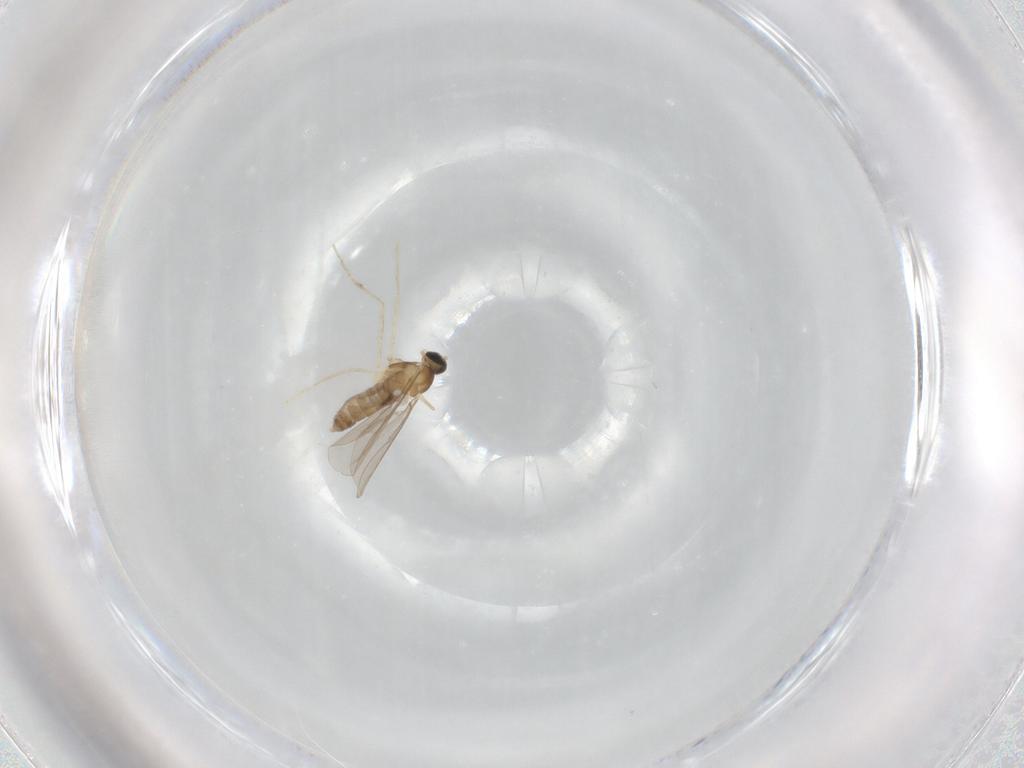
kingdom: Animalia
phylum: Arthropoda
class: Insecta
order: Diptera
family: Cecidomyiidae
